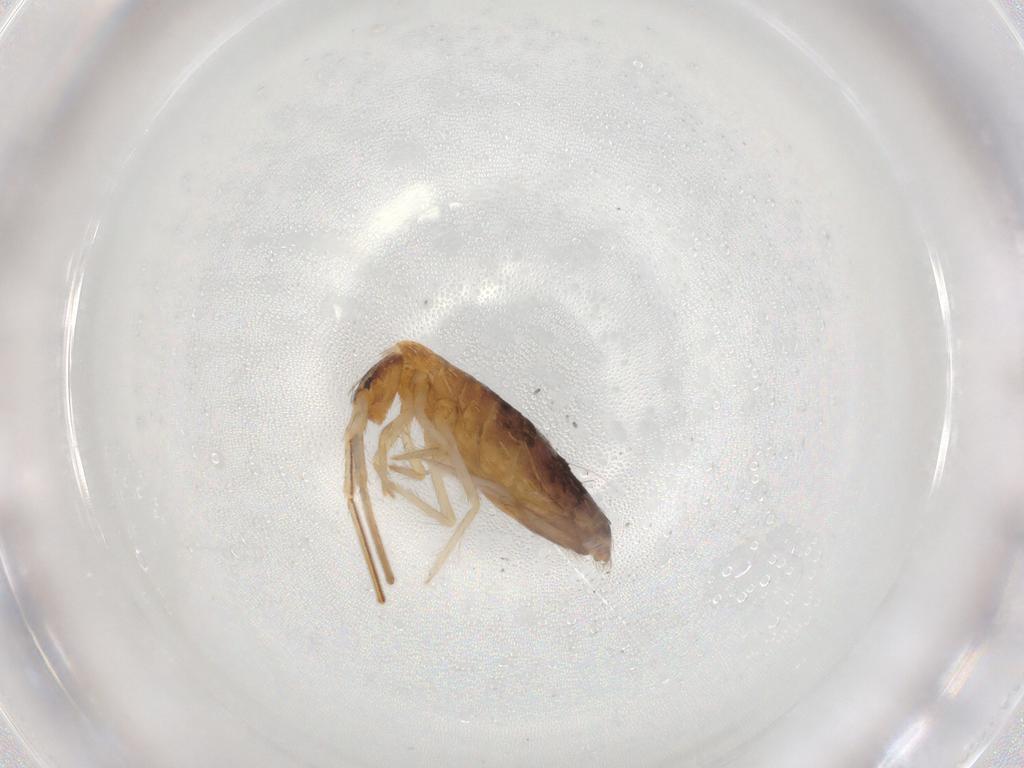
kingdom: Animalia
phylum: Arthropoda
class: Collembola
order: Entomobryomorpha
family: Entomobryidae
